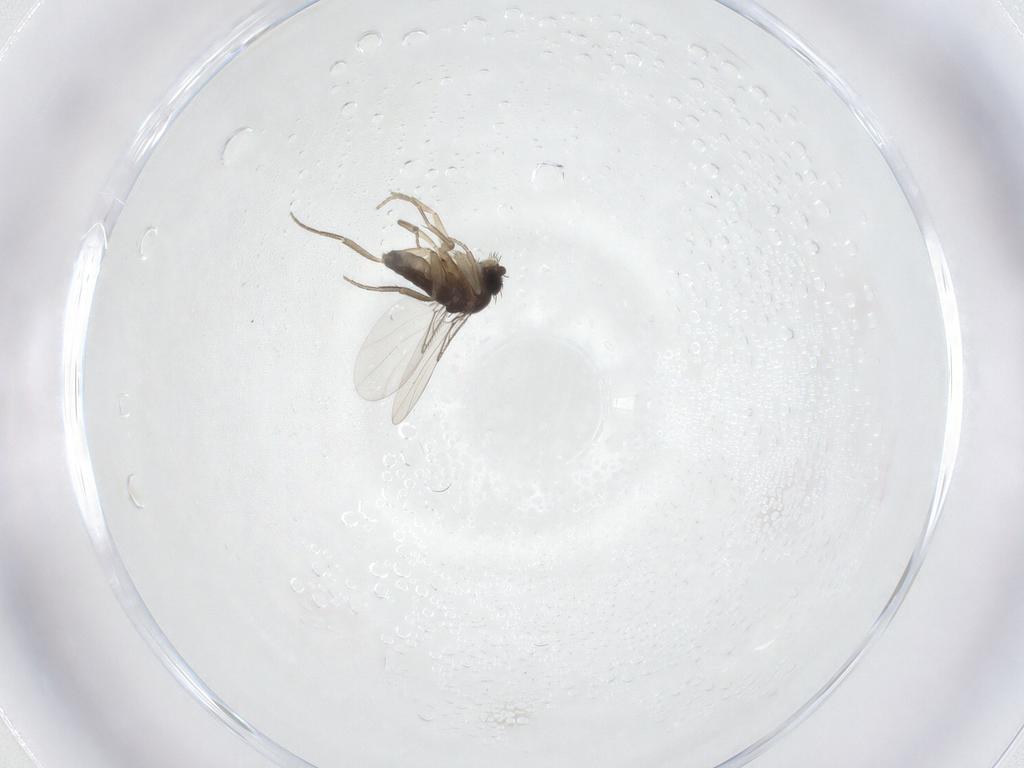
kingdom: Animalia
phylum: Arthropoda
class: Insecta
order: Diptera
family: Phoridae
